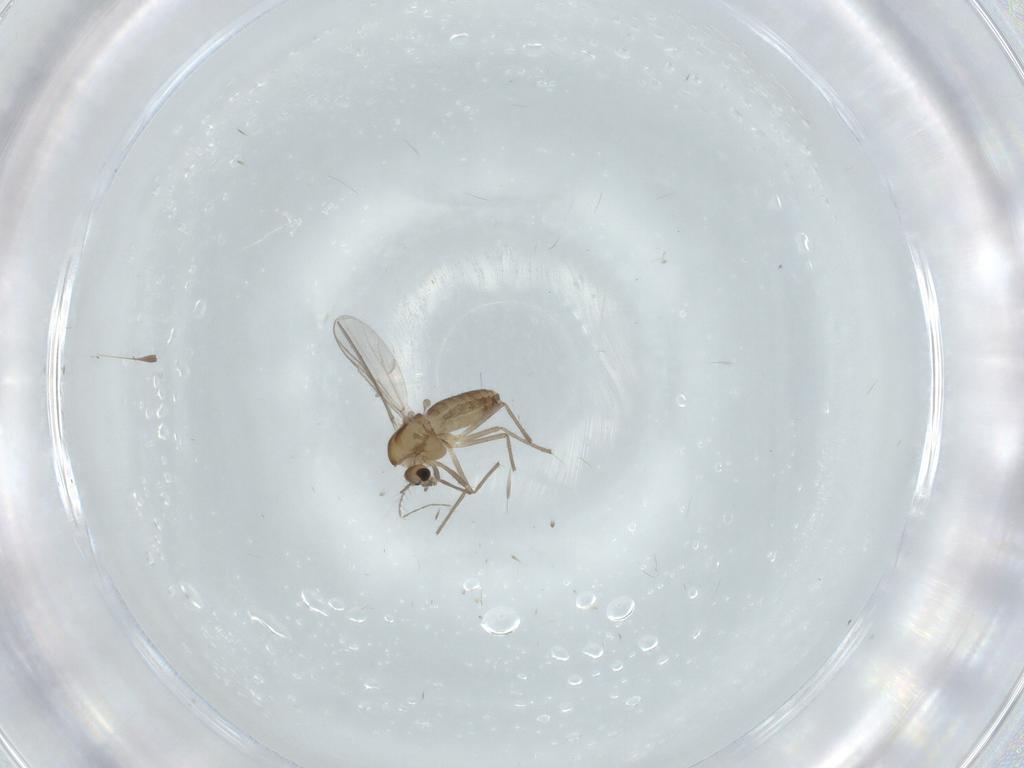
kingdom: Animalia
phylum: Arthropoda
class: Insecta
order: Diptera
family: Chironomidae
